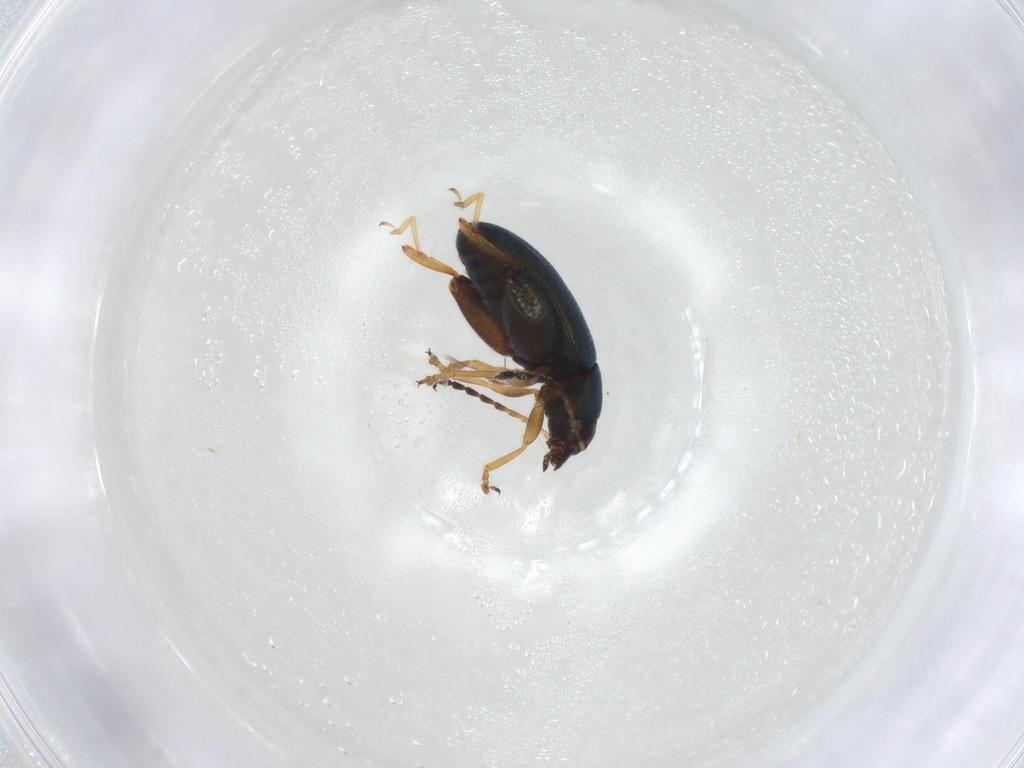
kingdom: Animalia
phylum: Arthropoda
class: Insecta
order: Coleoptera
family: Chrysomelidae
